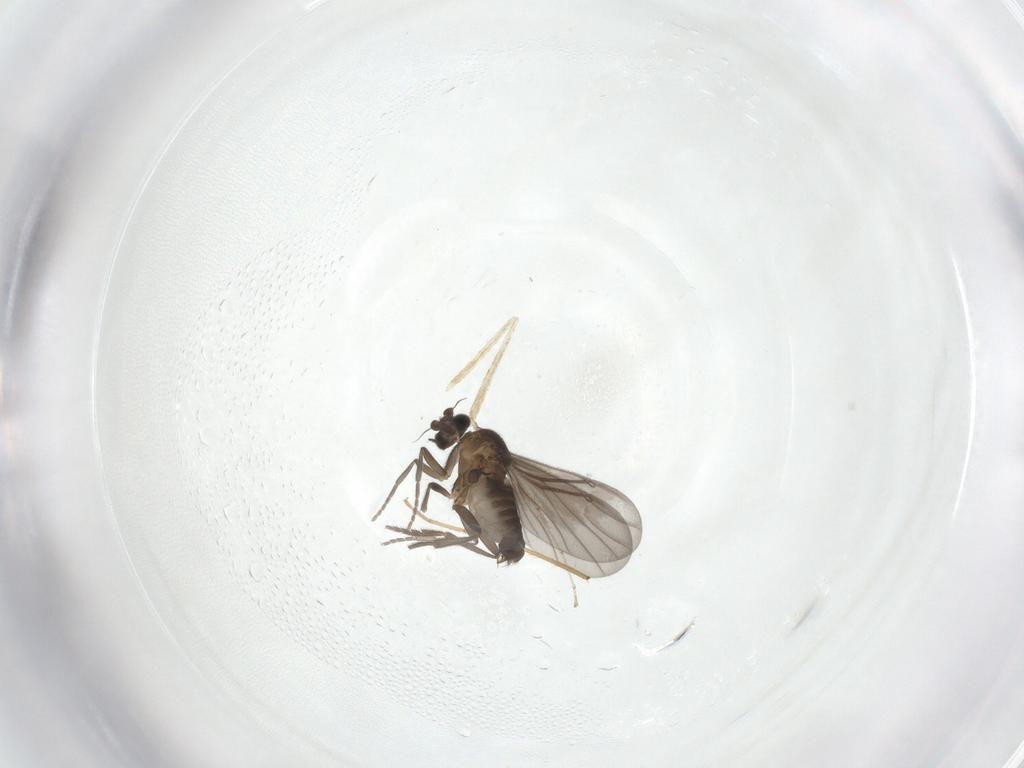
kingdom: Animalia
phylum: Arthropoda
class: Insecta
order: Diptera
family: Phoridae
